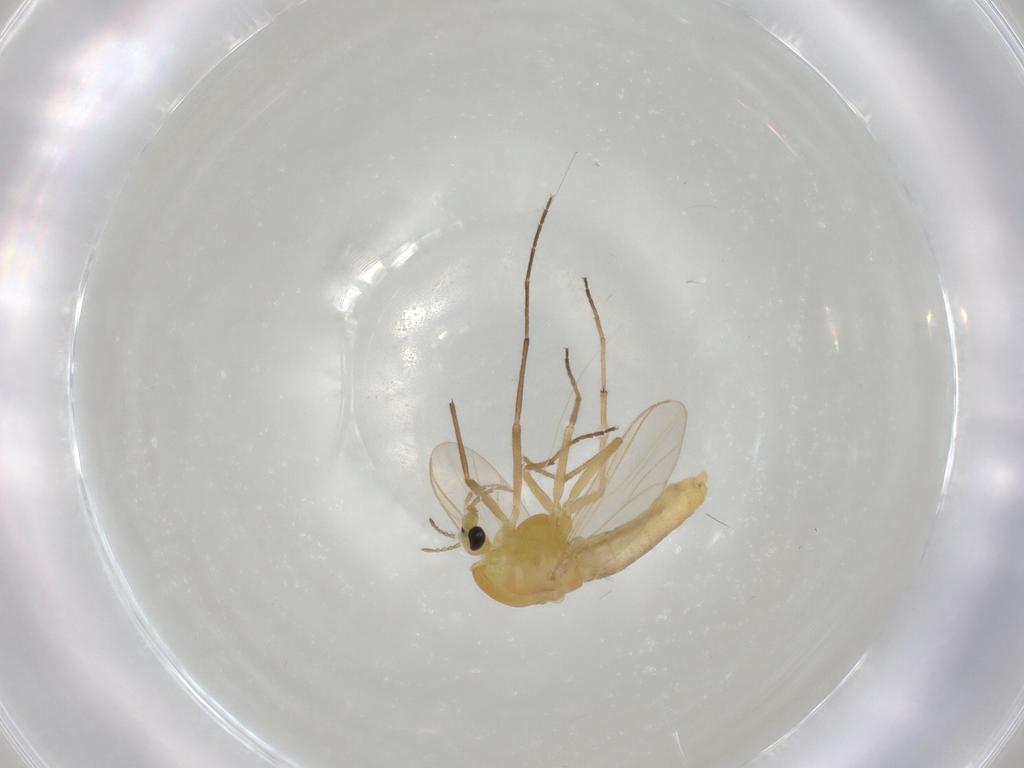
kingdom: Animalia
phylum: Arthropoda
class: Insecta
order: Diptera
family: Chironomidae
